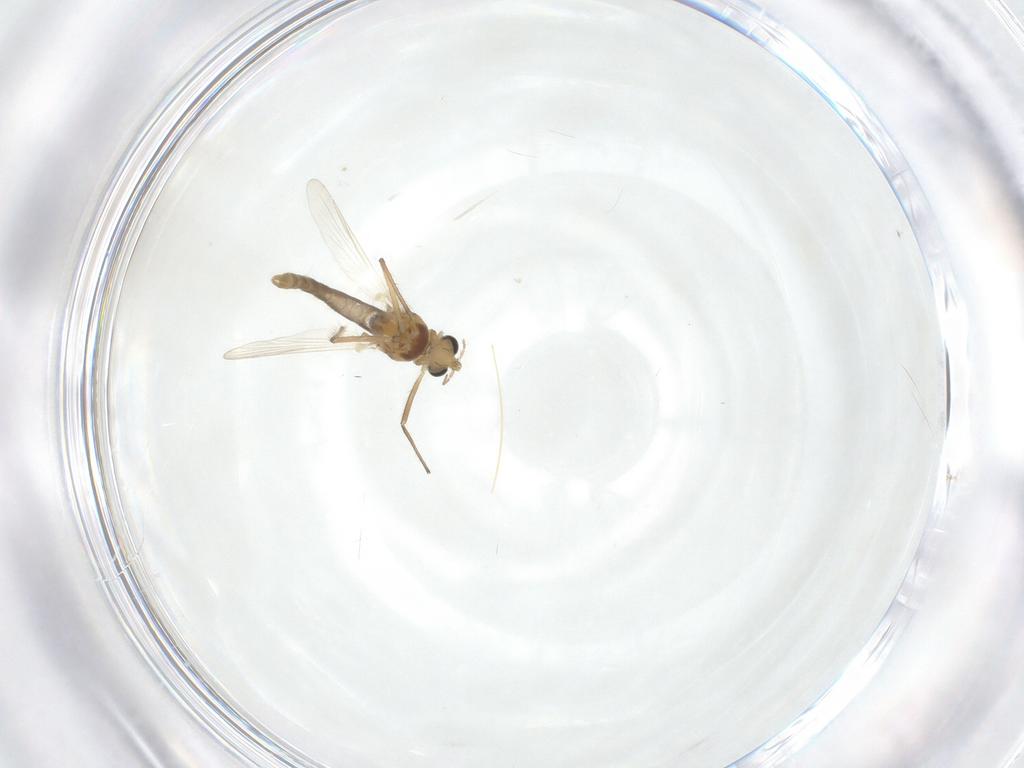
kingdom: Animalia
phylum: Arthropoda
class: Insecta
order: Diptera
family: Chironomidae
